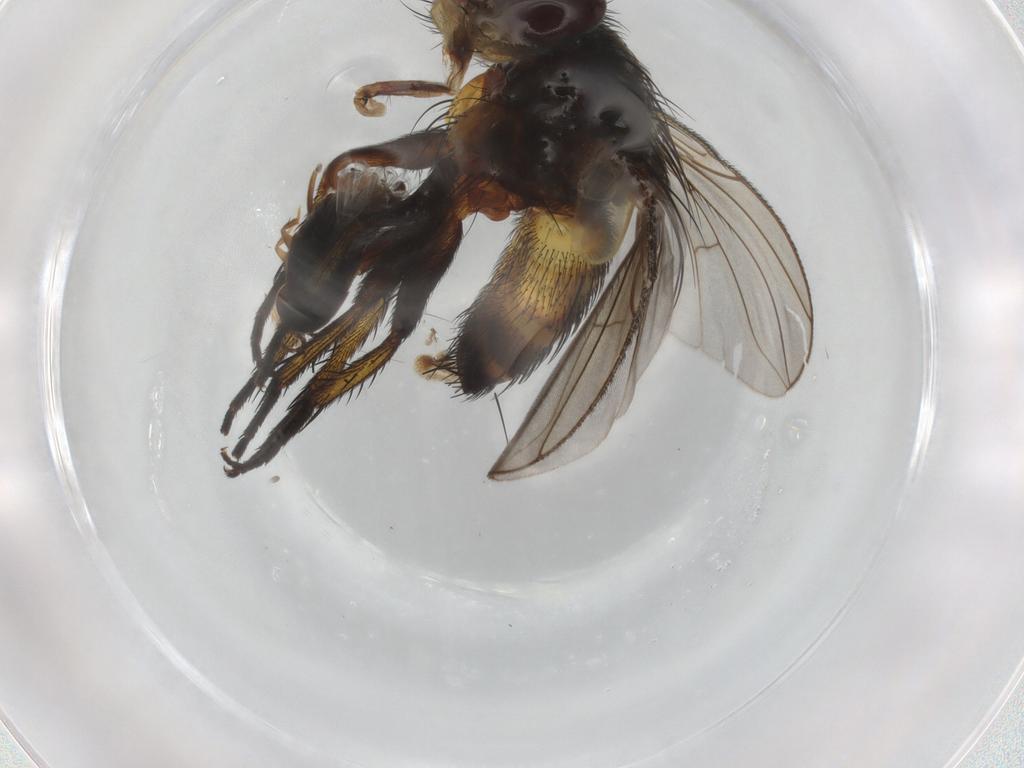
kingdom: Animalia
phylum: Arthropoda
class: Insecta
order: Diptera
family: Tachinidae
